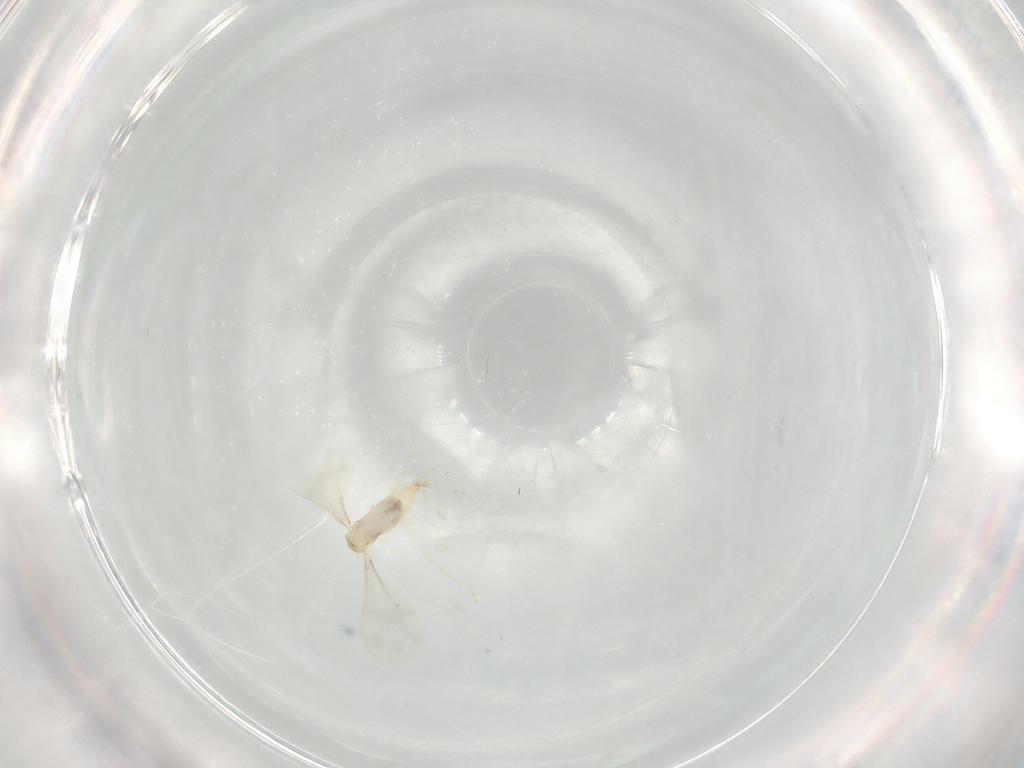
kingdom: Animalia
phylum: Arthropoda
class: Insecta
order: Diptera
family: Cecidomyiidae
